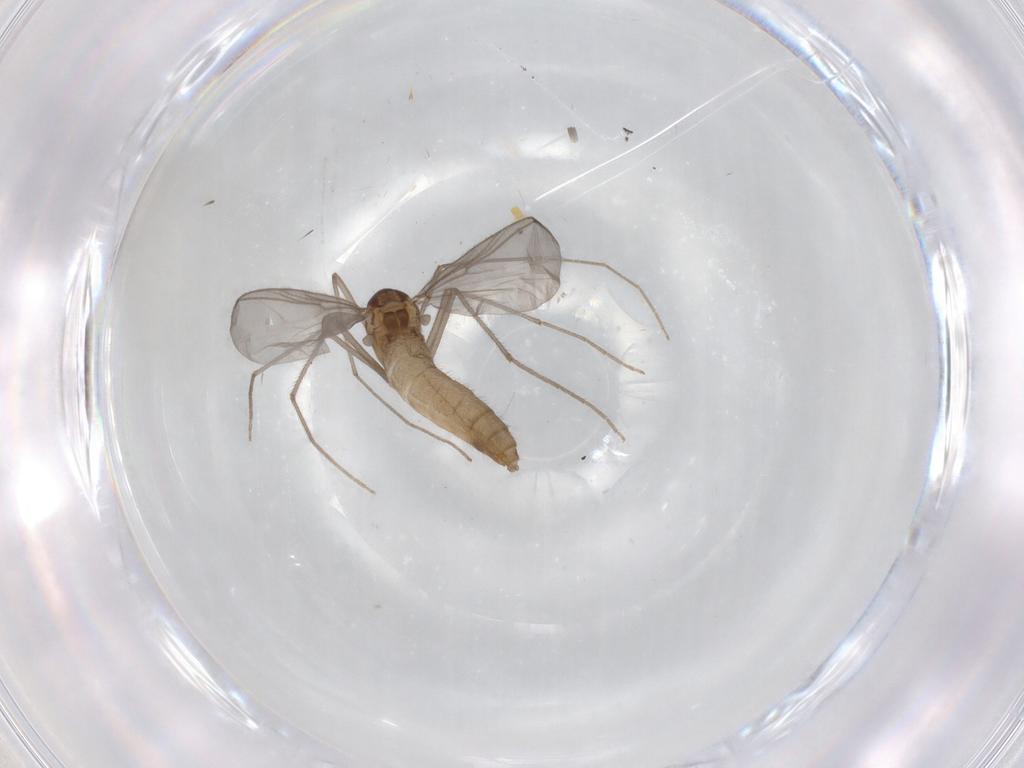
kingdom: Animalia
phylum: Arthropoda
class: Insecta
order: Diptera
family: Chironomidae
